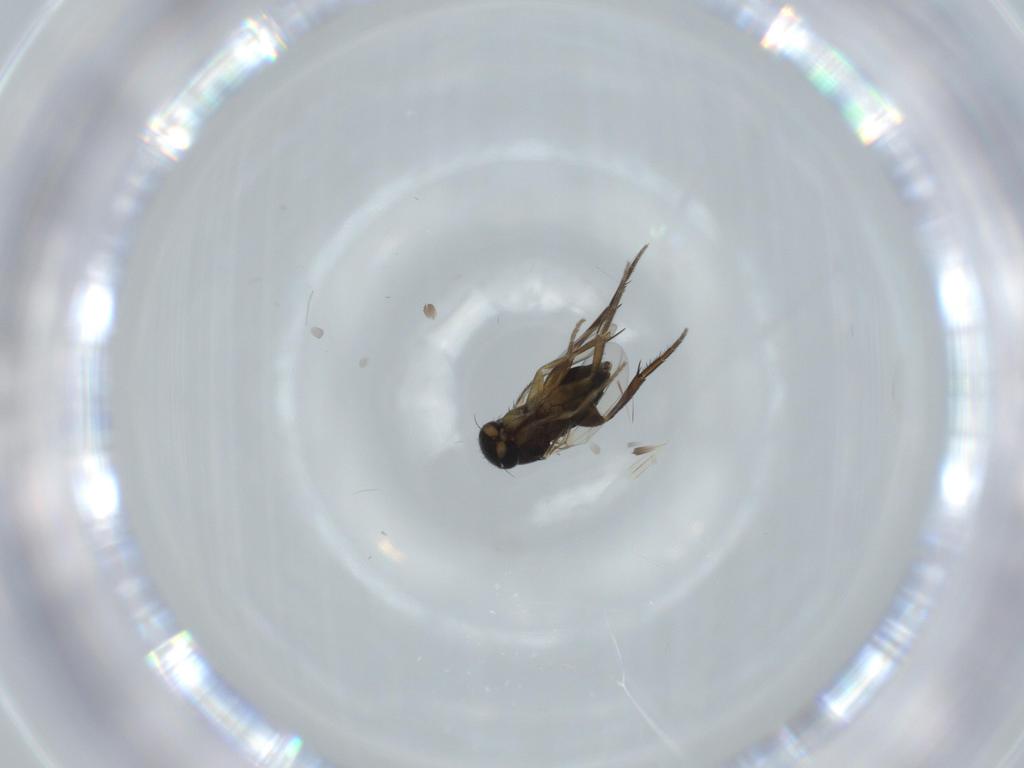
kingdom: Animalia
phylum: Arthropoda
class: Insecta
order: Diptera
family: Phoridae
